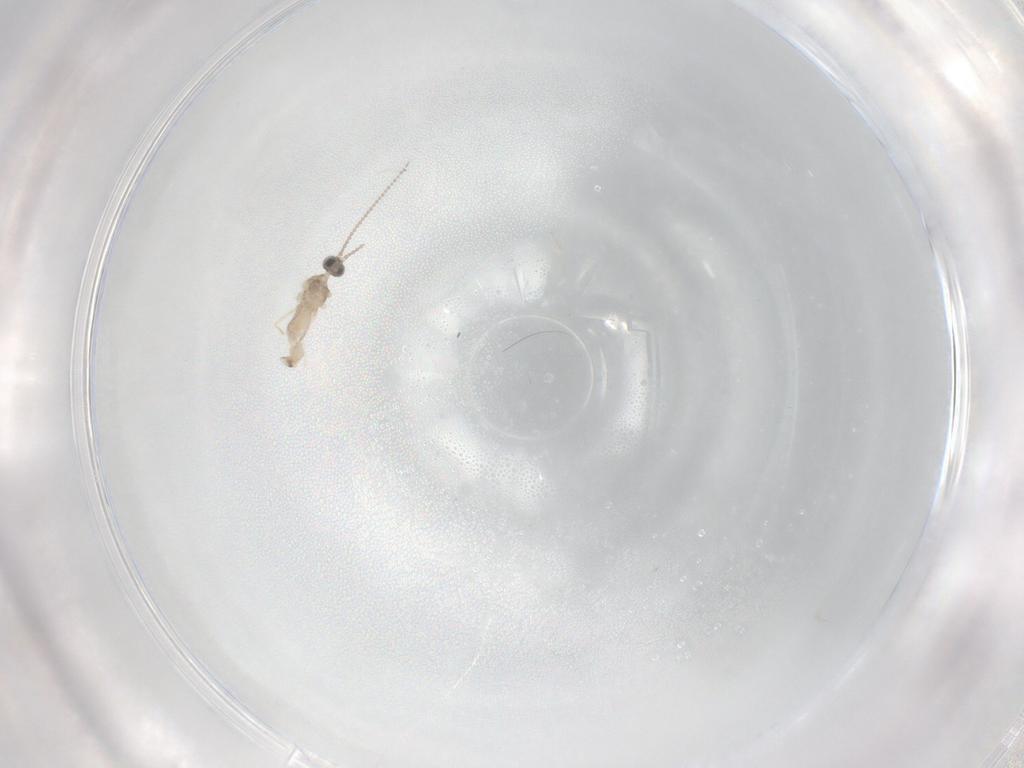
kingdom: Animalia
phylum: Arthropoda
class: Insecta
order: Diptera
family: Cecidomyiidae
